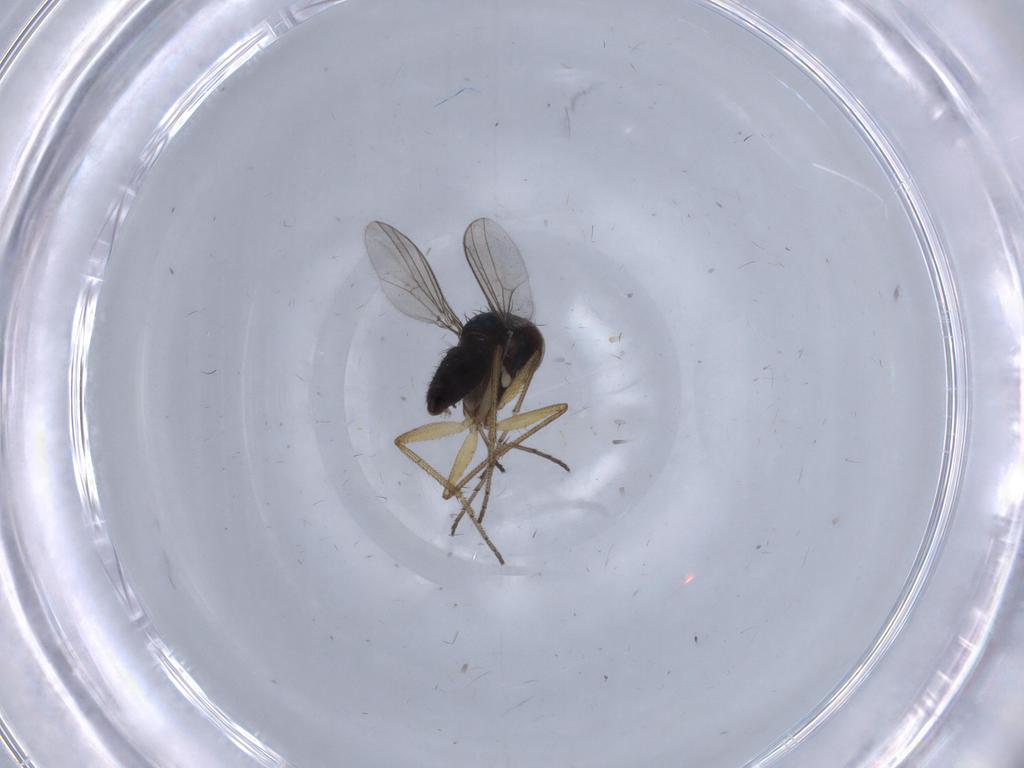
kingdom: Animalia
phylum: Arthropoda
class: Insecta
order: Diptera
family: Dolichopodidae
